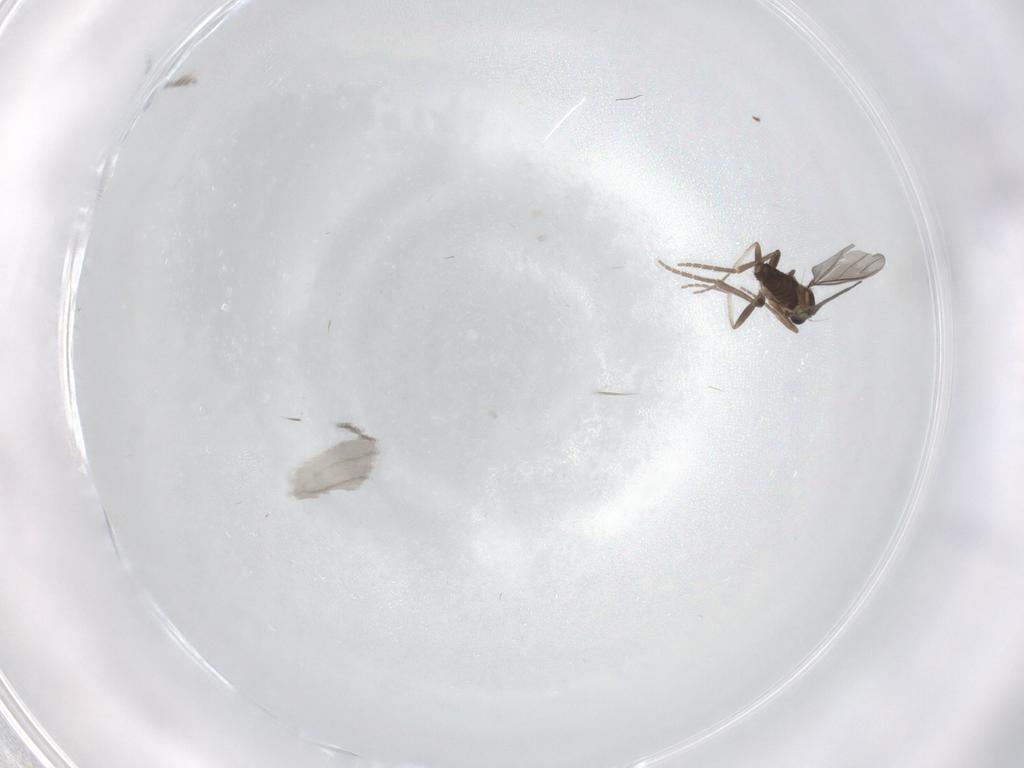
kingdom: Animalia
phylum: Arthropoda
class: Insecta
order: Diptera
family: Phoridae
